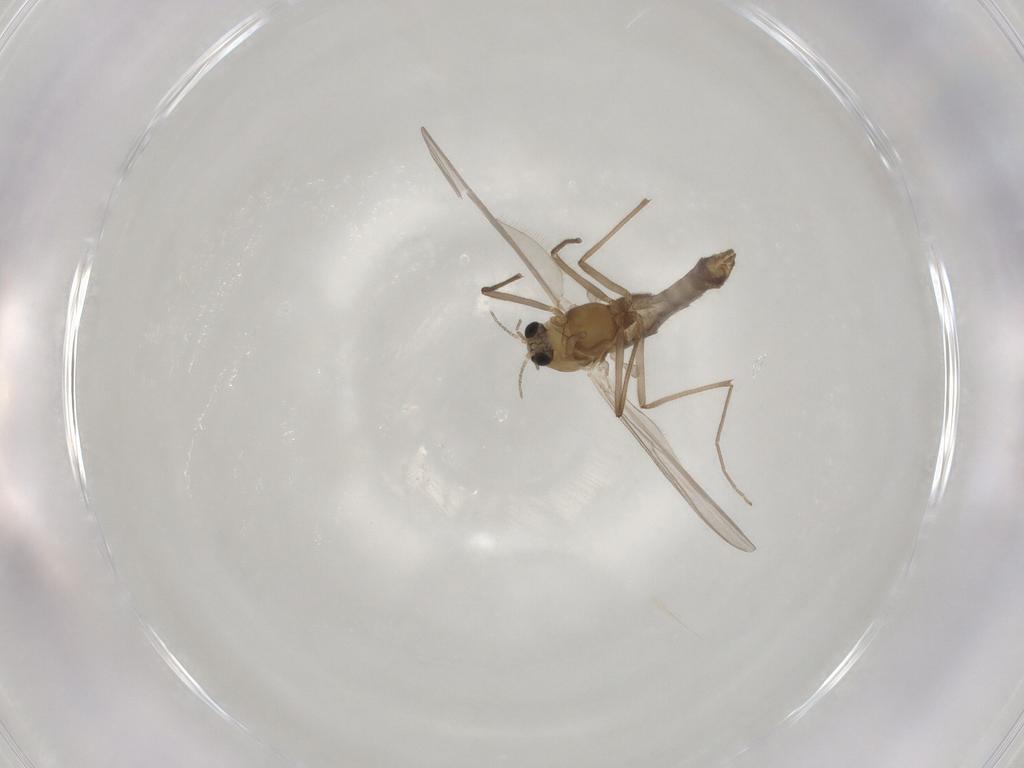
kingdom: Animalia
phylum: Arthropoda
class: Insecta
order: Diptera
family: Chironomidae
